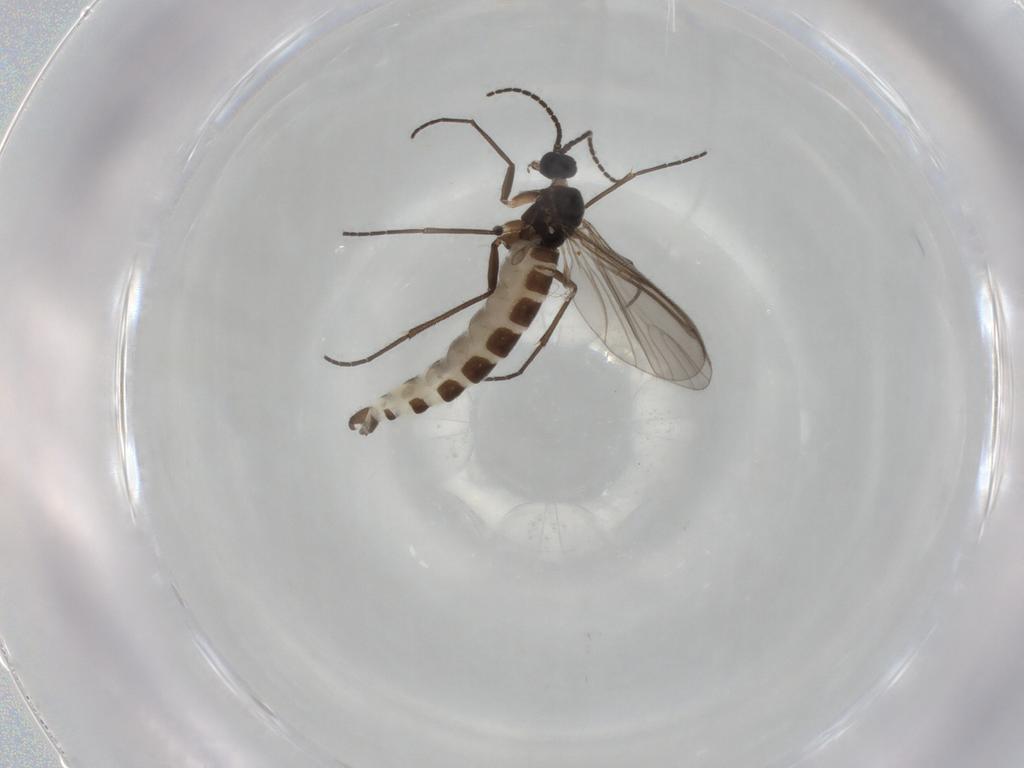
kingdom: Animalia
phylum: Arthropoda
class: Insecta
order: Diptera
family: Sciaridae
